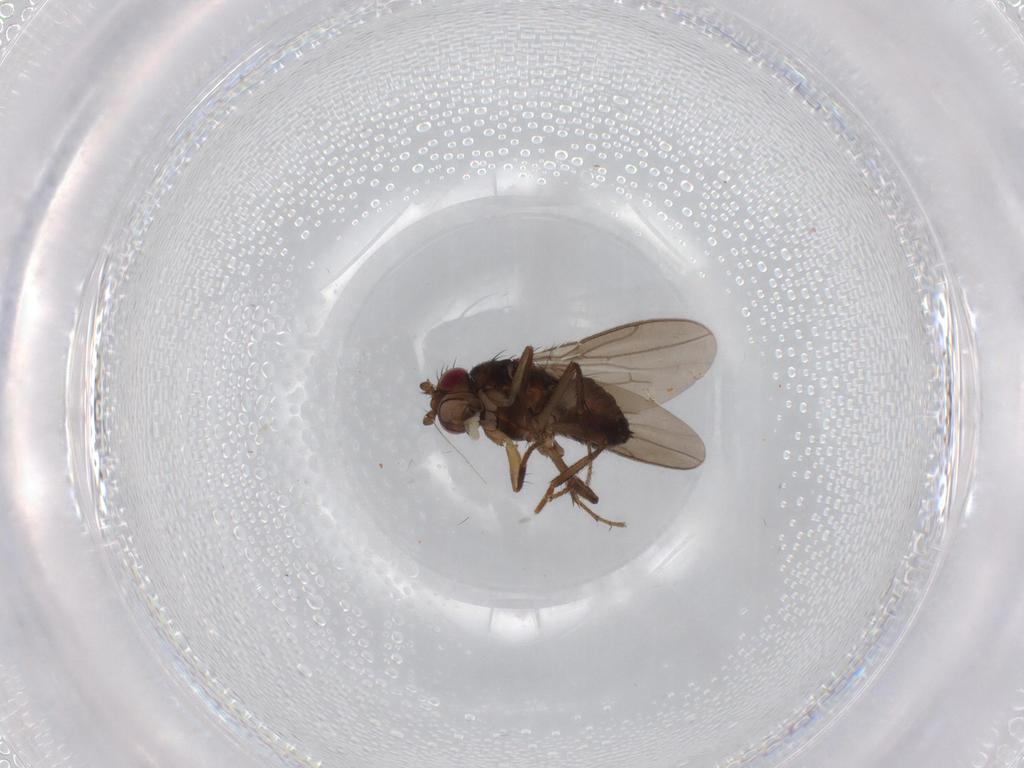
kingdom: Animalia
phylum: Arthropoda
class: Insecta
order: Diptera
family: Sphaeroceridae
